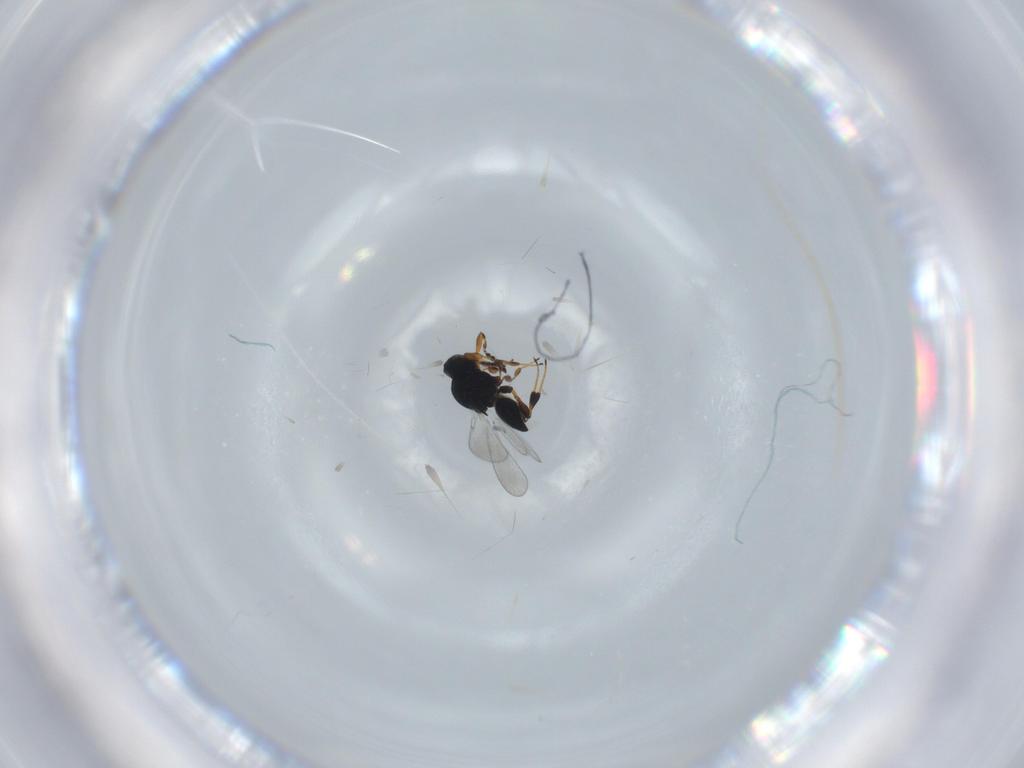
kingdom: Animalia
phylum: Arthropoda
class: Insecta
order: Hymenoptera
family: Platygastridae
